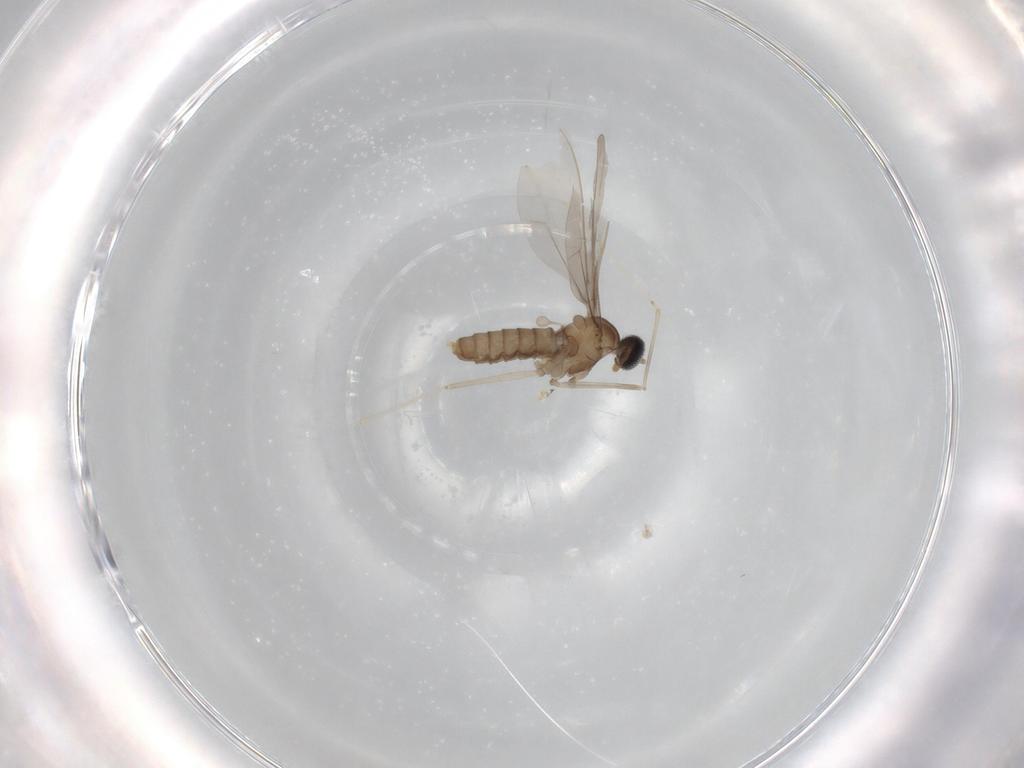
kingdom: Animalia
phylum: Arthropoda
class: Insecta
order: Diptera
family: Cecidomyiidae
